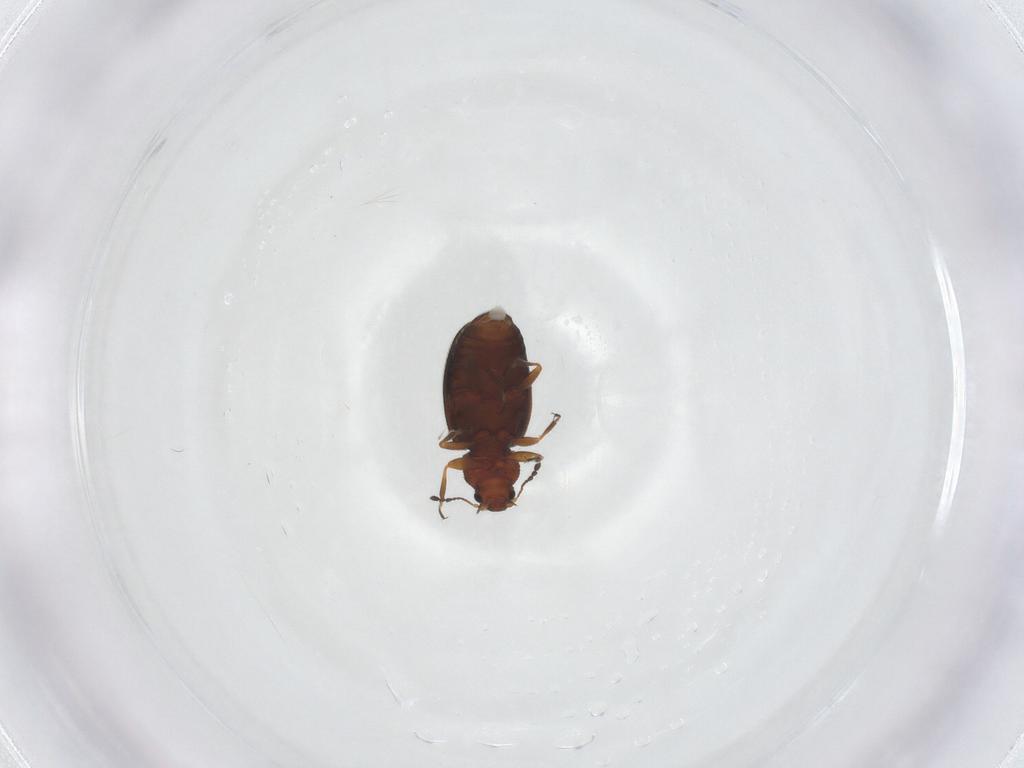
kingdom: Animalia
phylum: Arthropoda
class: Insecta
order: Coleoptera
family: Latridiidae
